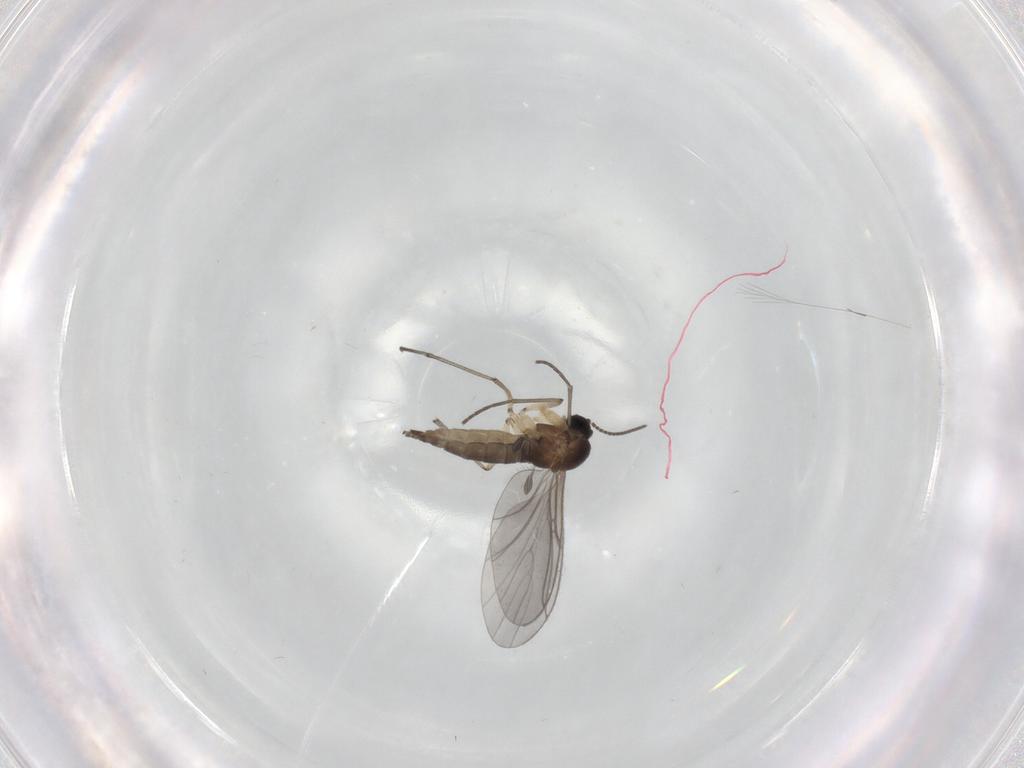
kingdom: Animalia
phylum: Arthropoda
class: Insecta
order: Diptera
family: Sciaridae
